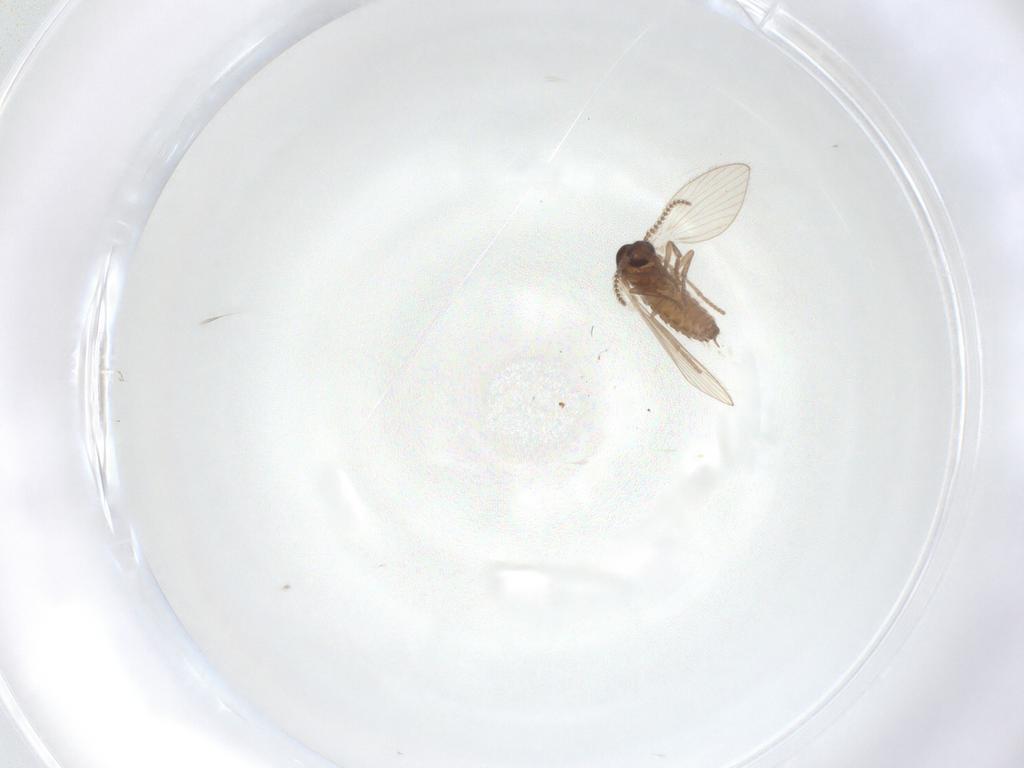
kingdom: Animalia
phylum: Arthropoda
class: Insecta
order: Diptera
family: Psychodidae
